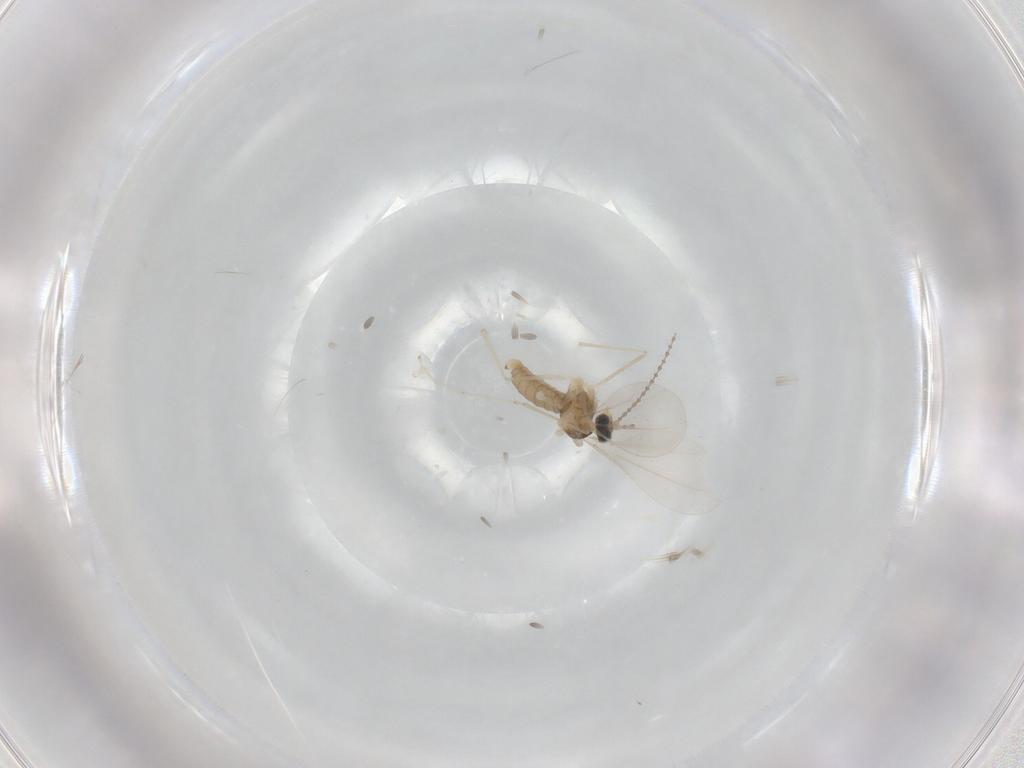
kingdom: Animalia
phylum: Arthropoda
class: Insecta
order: Diptera
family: Cecidomyiidae
